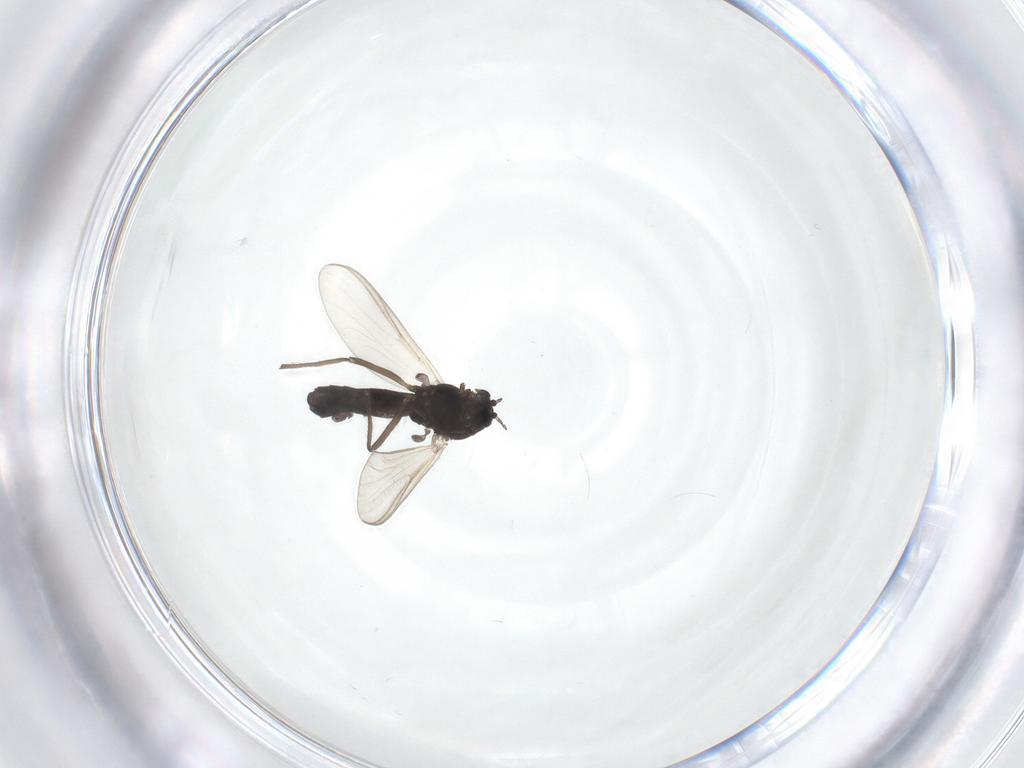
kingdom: Animalia
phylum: Arthropoda
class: Insecta
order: Diptera
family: Chironomidae
